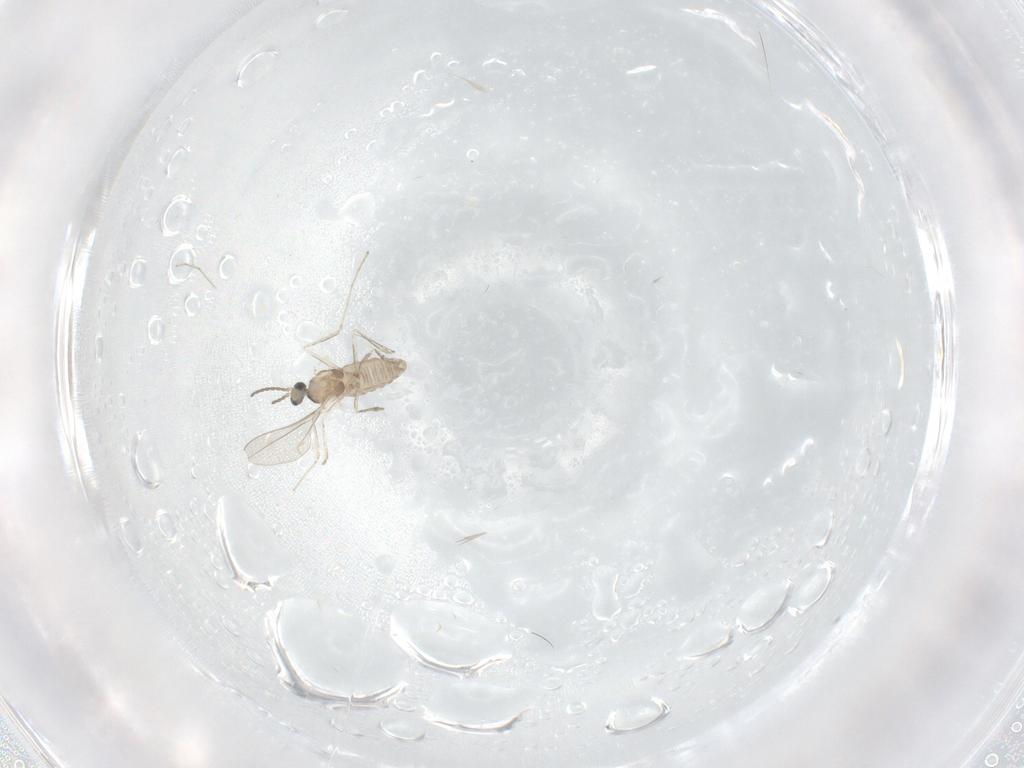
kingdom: Animalia
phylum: Arthropoda
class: Insecta
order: Diptera
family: Cecidomyiidae
